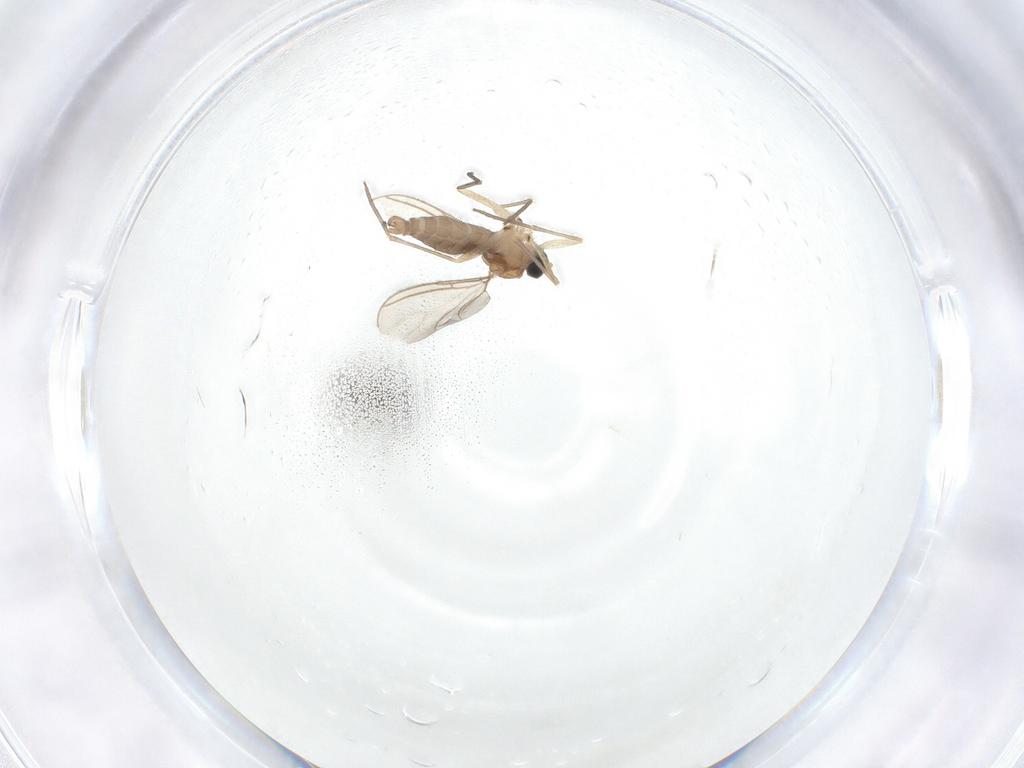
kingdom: Animalia
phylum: Arthropoda
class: Insecta
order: Diptera
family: Sciaridae
